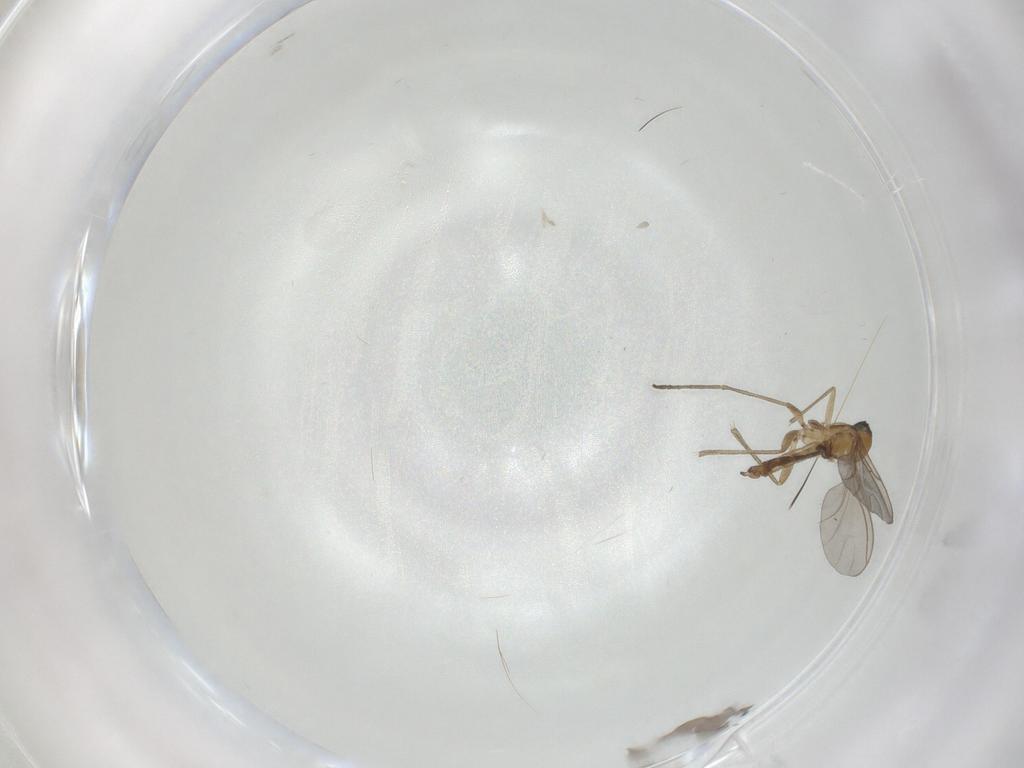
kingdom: Animalia
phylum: Arthropoda
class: Insecta
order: Diptera
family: Sciaridae
